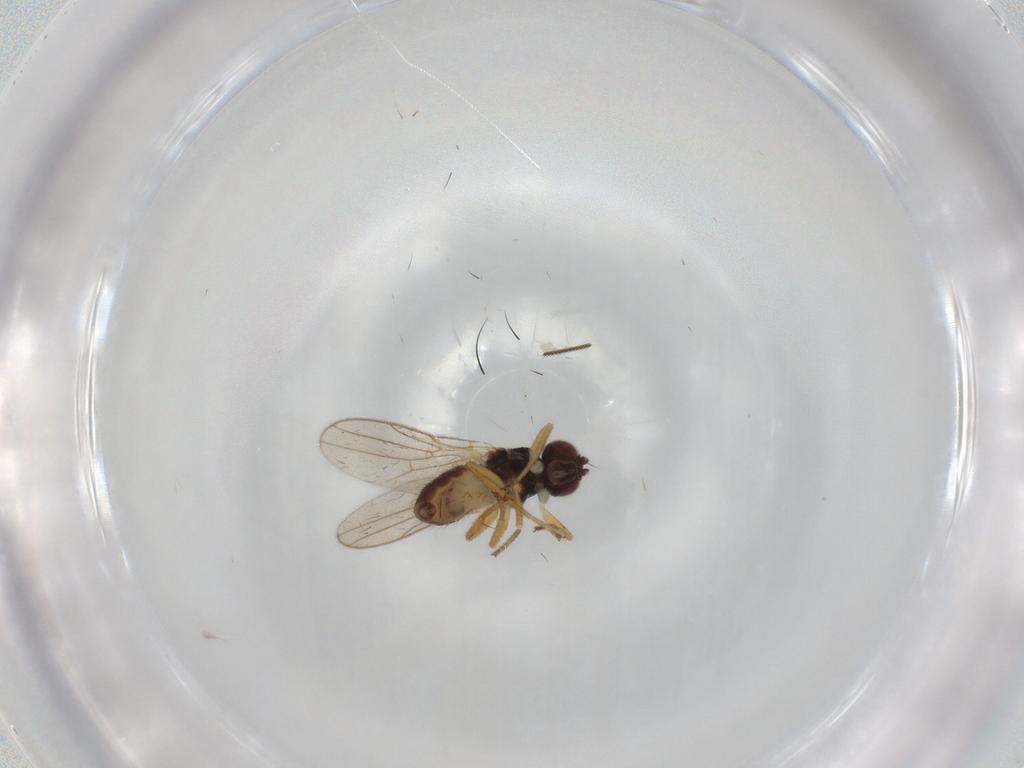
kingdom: Animalia
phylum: Arthropoda
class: Insecta
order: Diptera
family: Chloropidae
